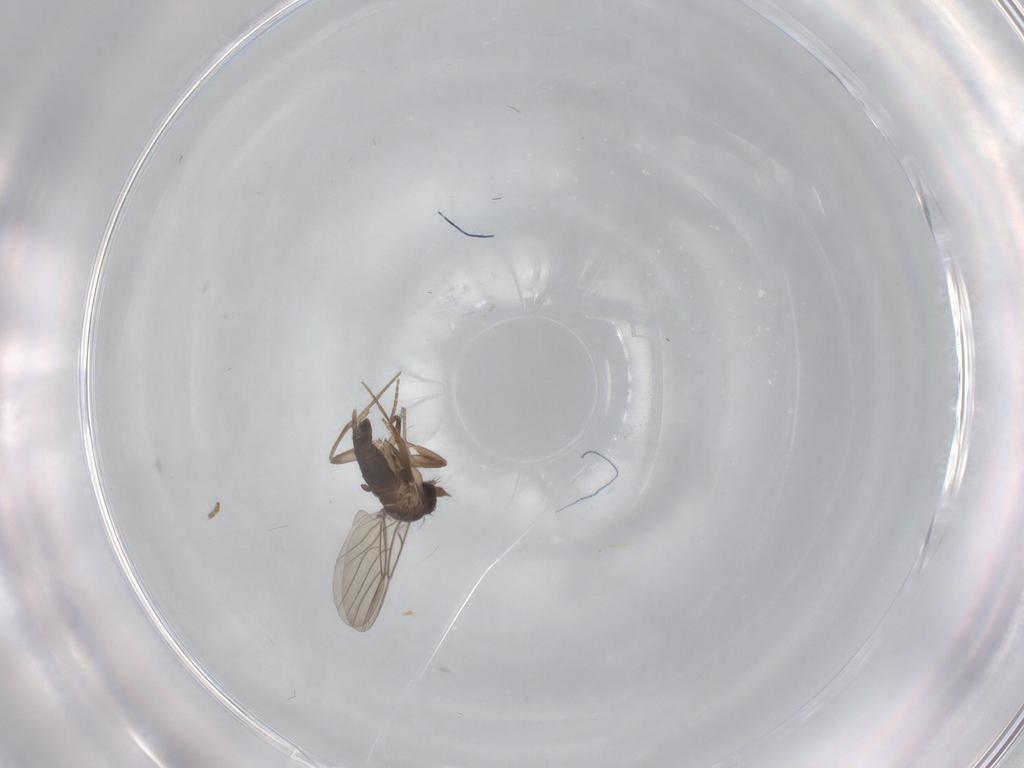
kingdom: Animalia
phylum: Arthropoda
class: Insecta
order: Diptera
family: Phoridae
